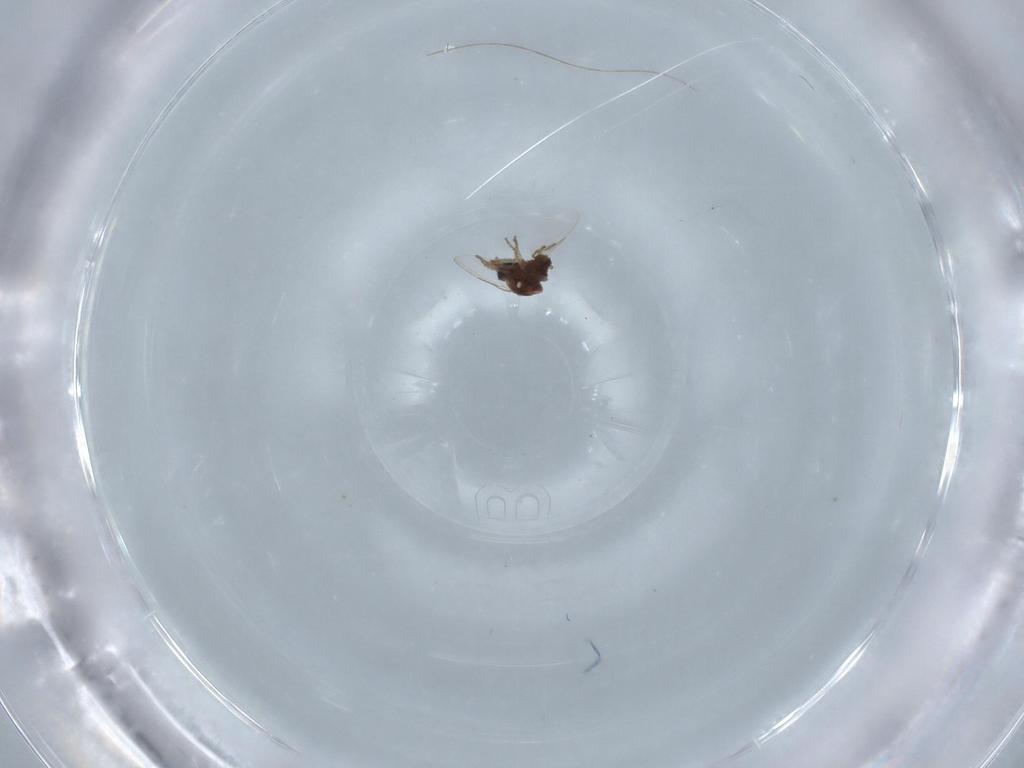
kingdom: Animalia
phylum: Arthropoda
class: Insecta
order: Diptera
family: Ceratopogonidae
